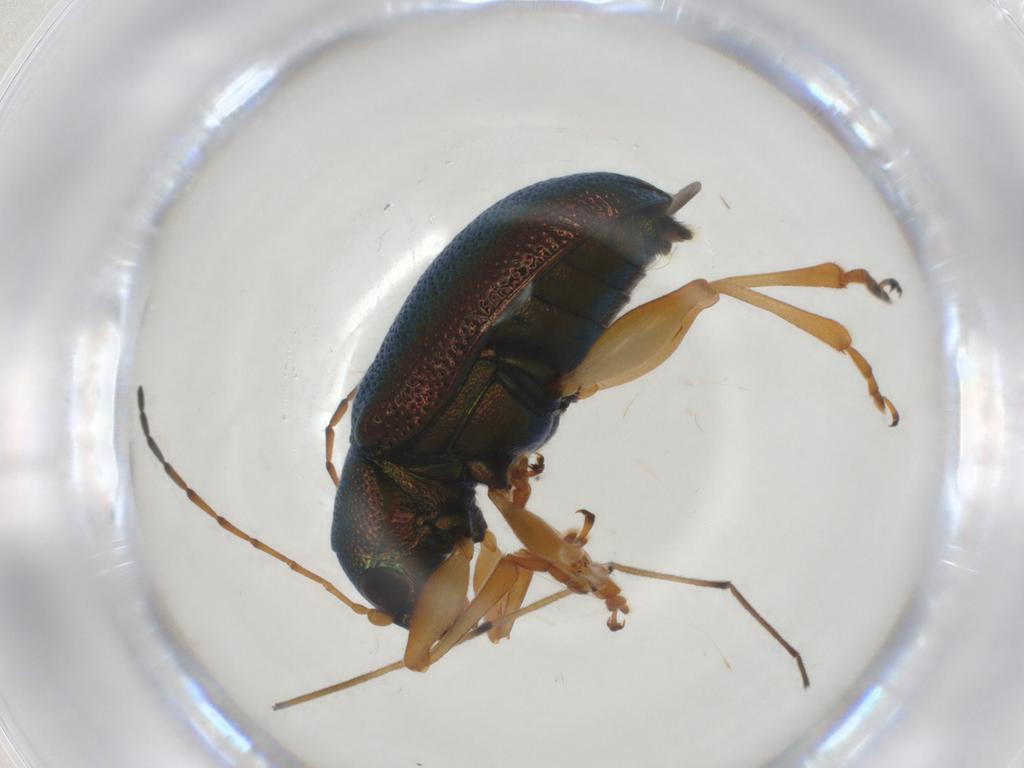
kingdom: Animalia
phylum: Arthropoda
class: Insecta
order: Coleoptera
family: Chrysomelidae
